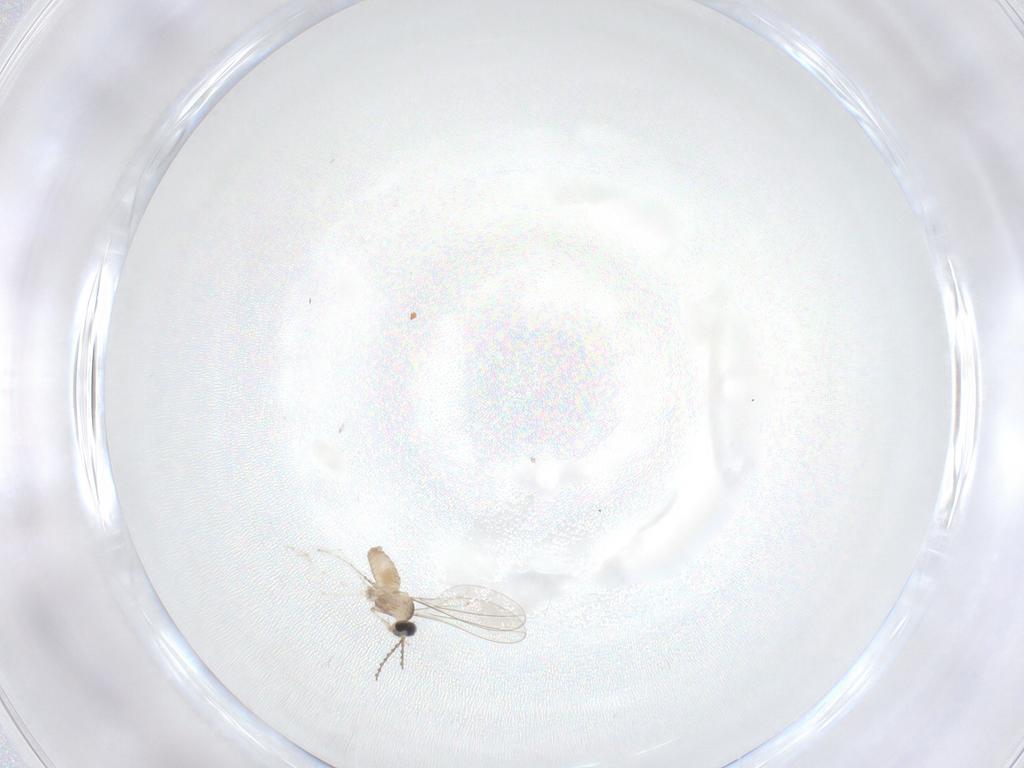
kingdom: Animalia
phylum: Arthropoda
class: Insecta
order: Diptera
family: Cecidomyiidae
